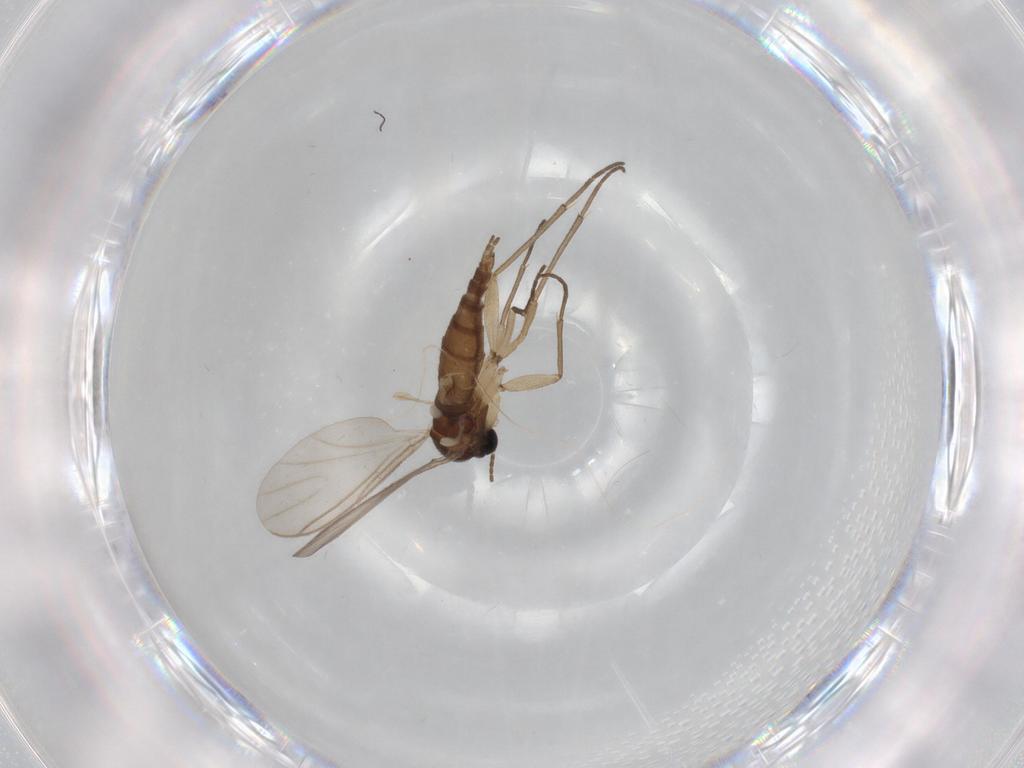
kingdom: Animalia
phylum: Arthropoda
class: Insecta
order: Diptera
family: Sciaridae
